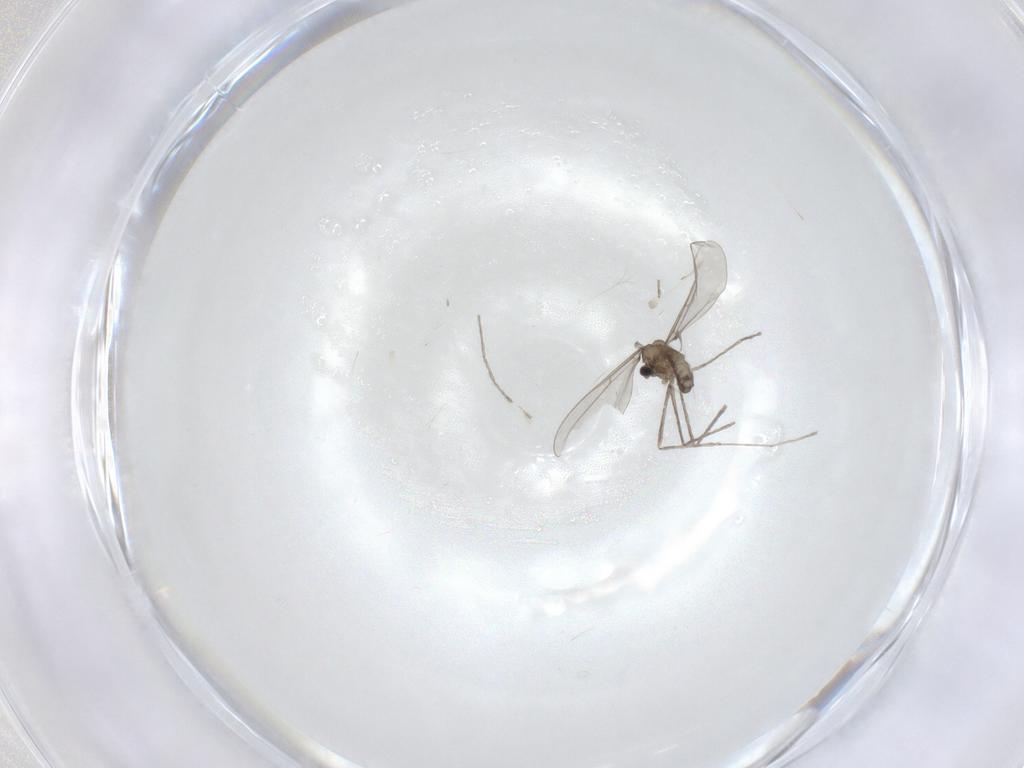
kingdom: Animalia
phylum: Arthropoda
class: Insecta
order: Diptera
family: Cecidomyiidae
